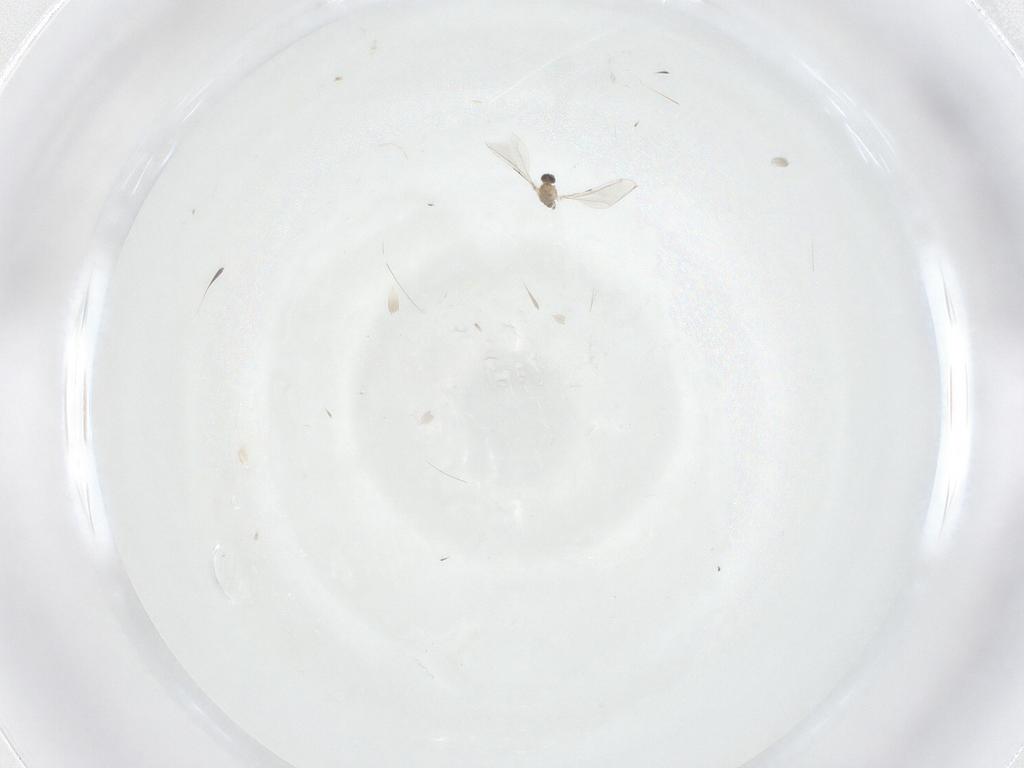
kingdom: Animalia
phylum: Arthropoda
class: Insecta
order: Diptera
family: Cecidomyiidae
